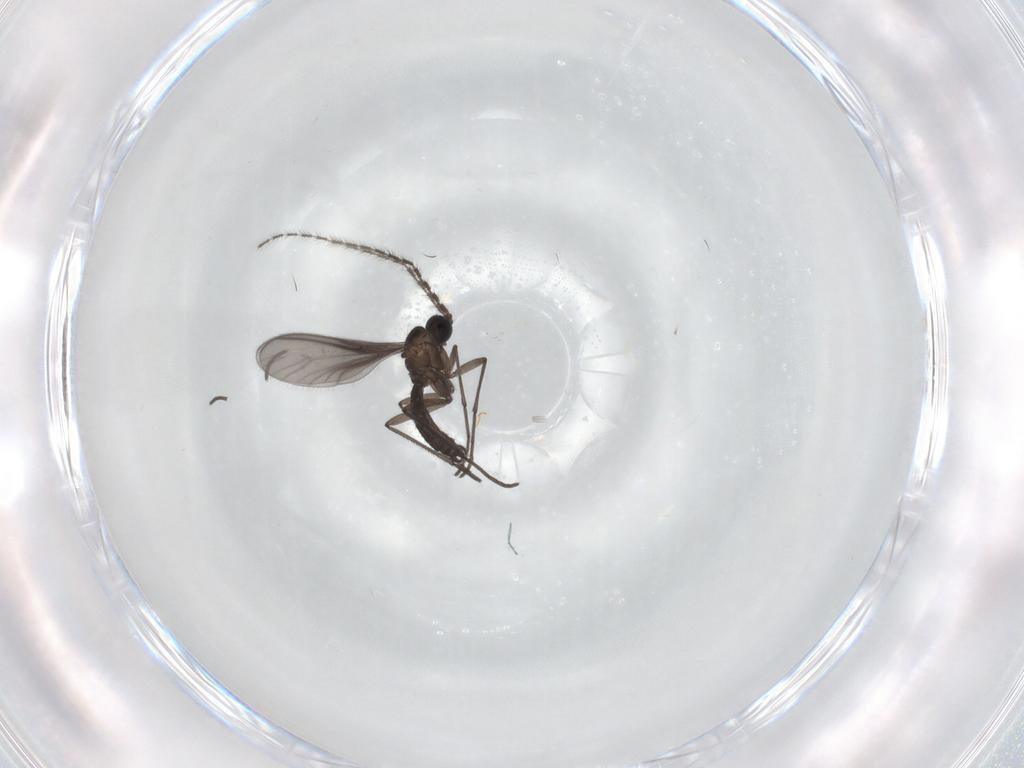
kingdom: Animalia
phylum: Arthropoda
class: Insecta
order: Diptera
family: Sciaridae
